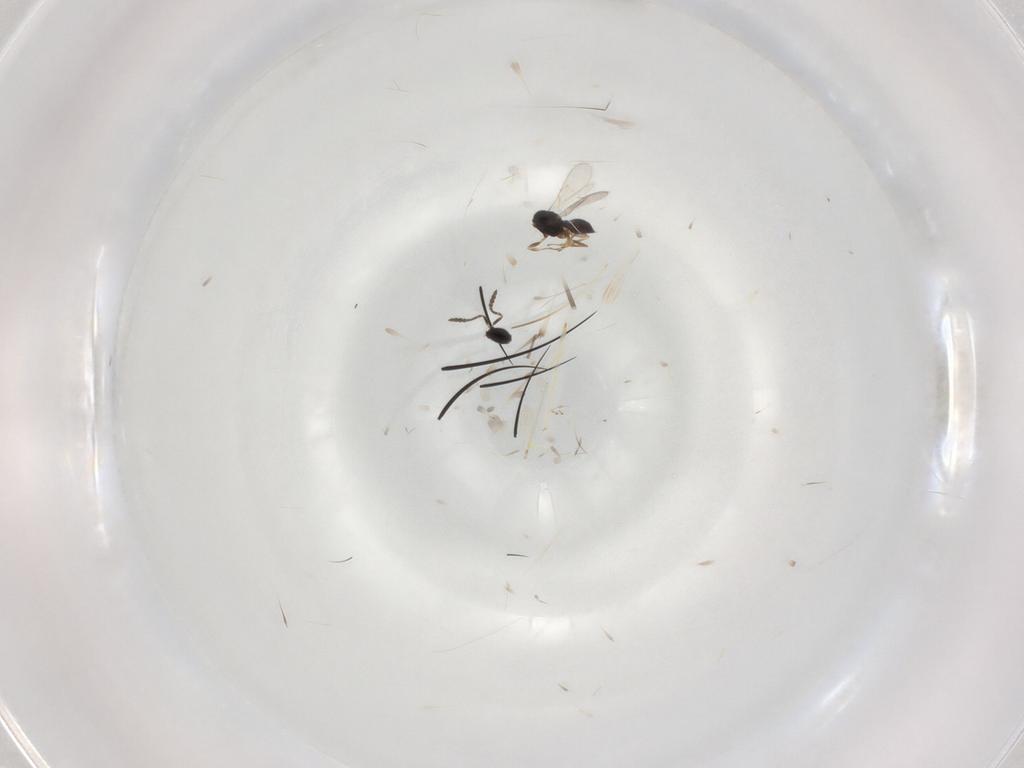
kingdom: Animalia
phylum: Arthropoda
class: Insecta
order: Hymenoptera
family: Scelionidae
